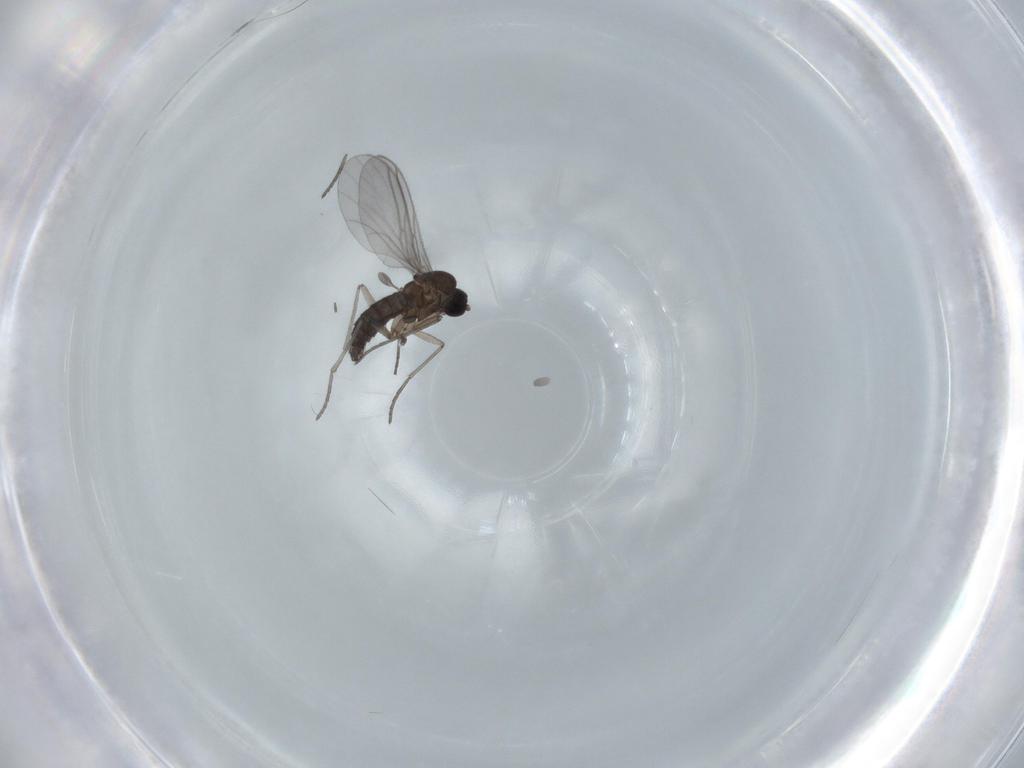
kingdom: Animalia
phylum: Arthropoda
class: Insecta
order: Diptera
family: Sciaridae
